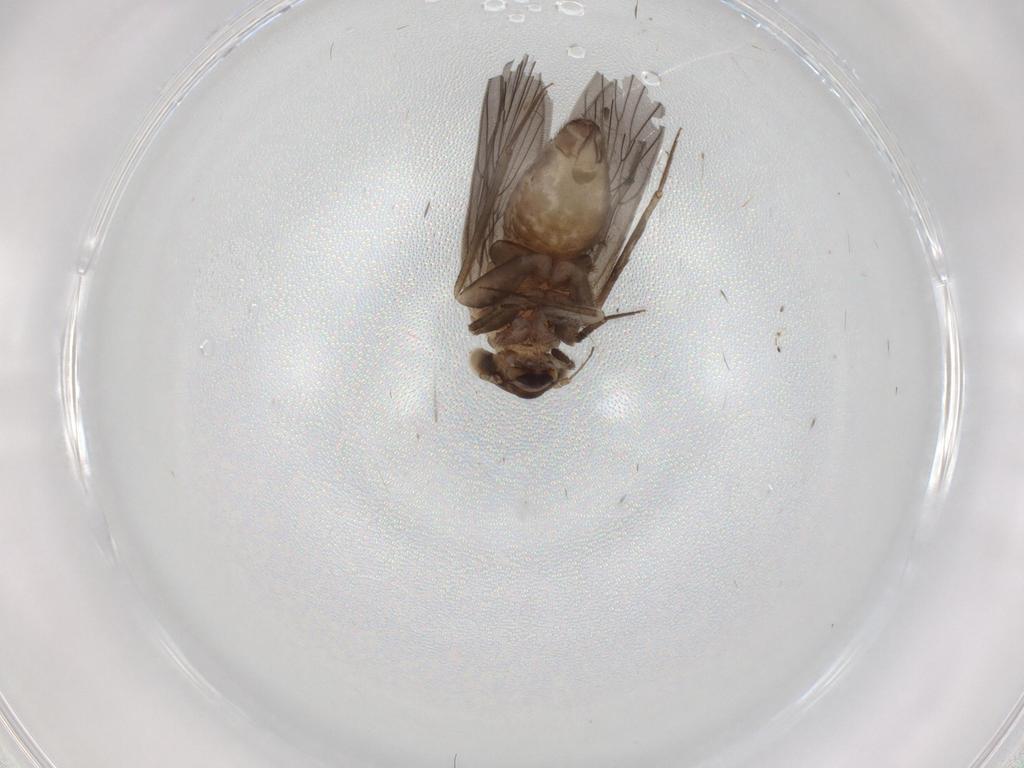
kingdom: Animalia
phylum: Arthropoda
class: Insecta
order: Psocodea
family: Lepidopsocidae
